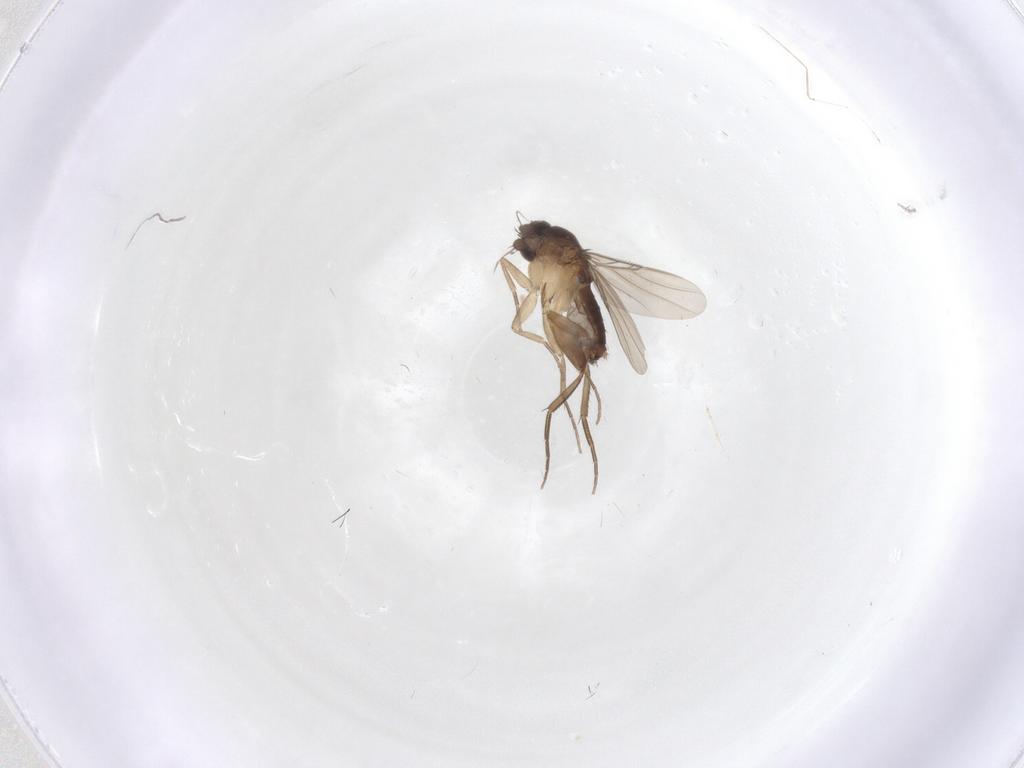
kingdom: Animalia
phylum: Arthropoda
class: Insecta
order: Diptera
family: Phoridae
